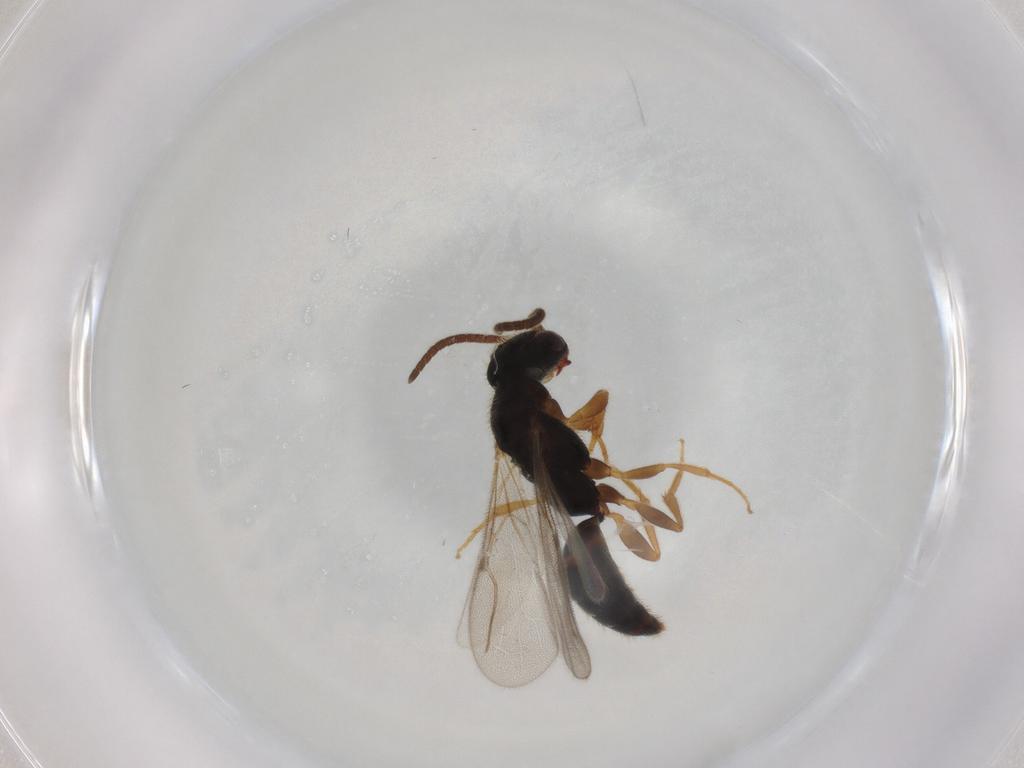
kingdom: Animalia
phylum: Arthropoda
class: Insecta
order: Hymenoptera
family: Bethylidae
